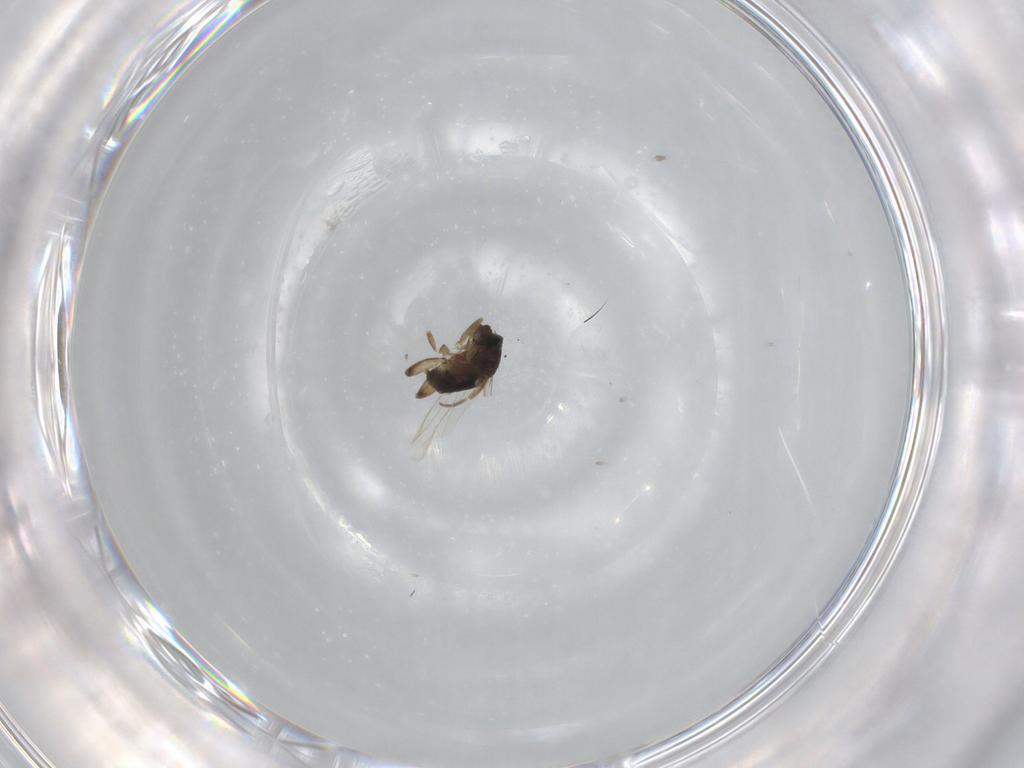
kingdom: Animalia
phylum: Arthropoda
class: Insecta
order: Diptera
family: Phoridae
